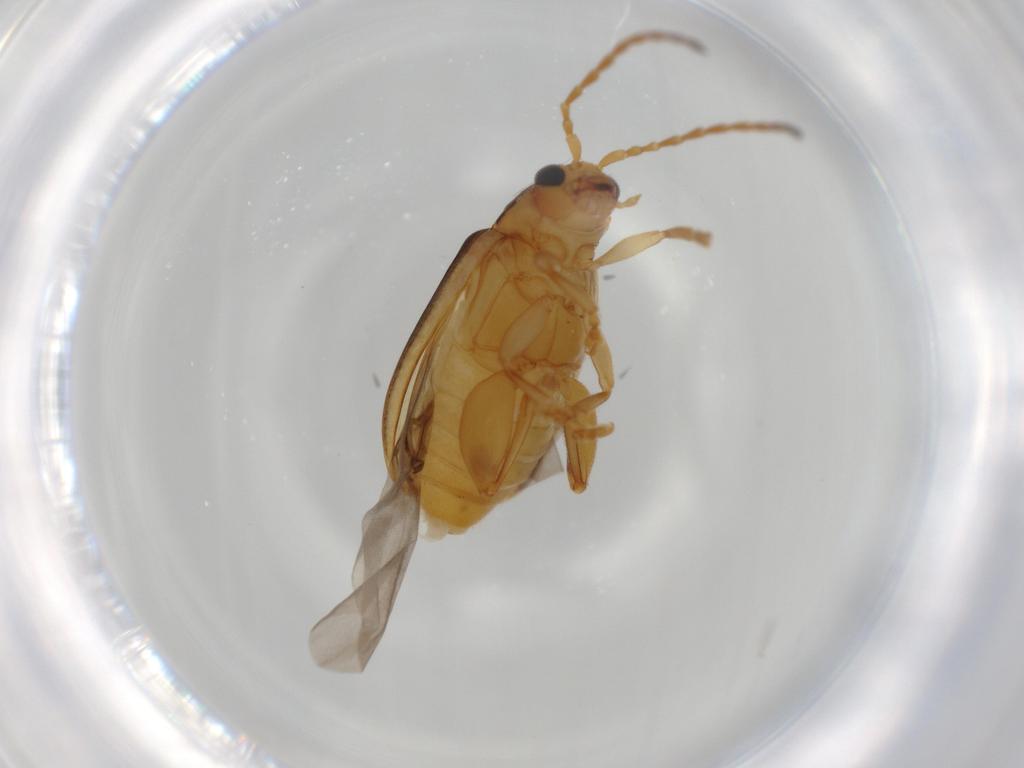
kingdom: Animalia
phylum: Arthropoda
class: Insecta
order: Coleoptera
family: Chrysomelidae
